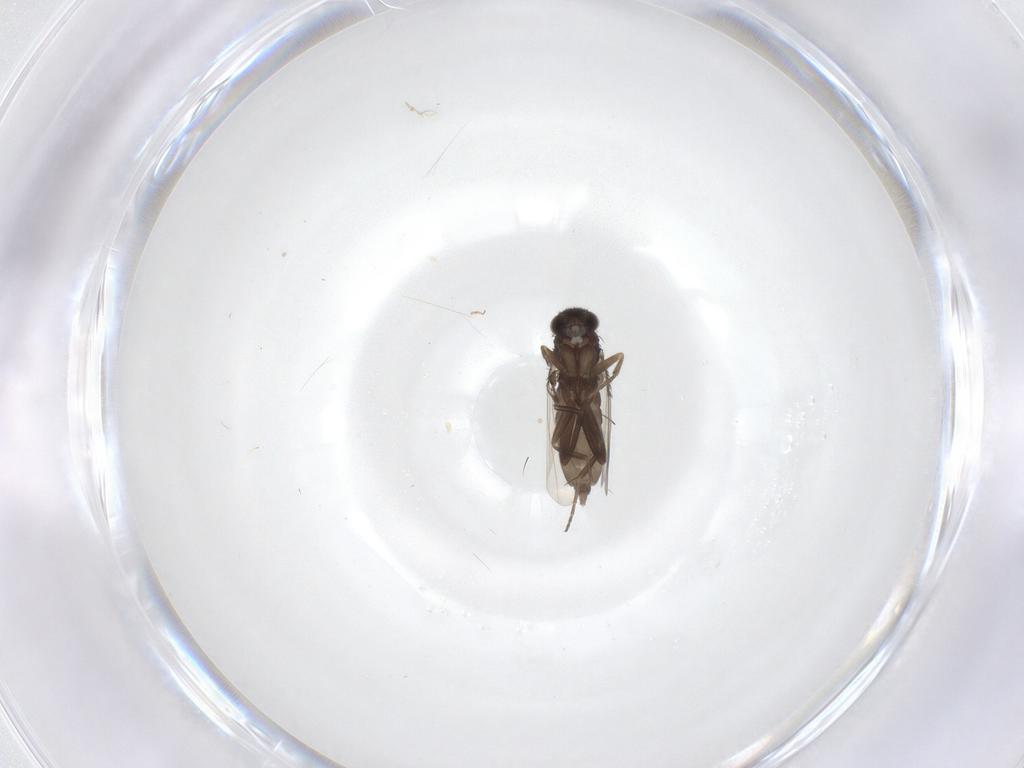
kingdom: Animalia
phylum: Arthropoda
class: Insecta
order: Diptera
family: Phoridae
